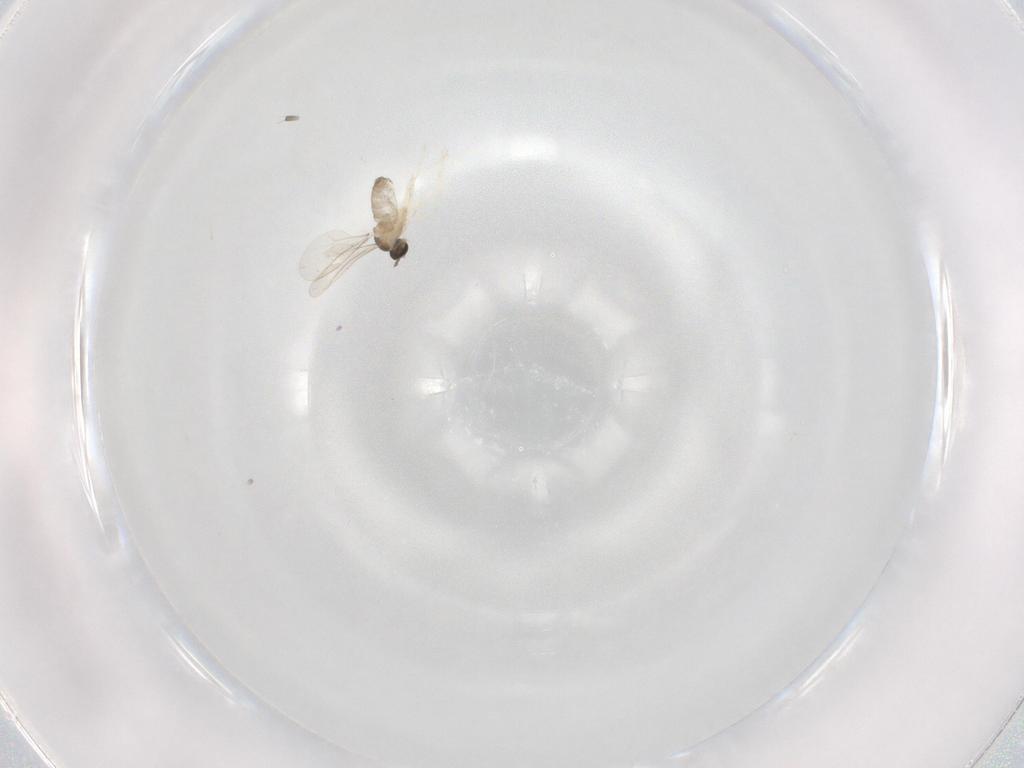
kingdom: Animalia
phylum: Arthropoda
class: Insecta
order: Diptera
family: Cecidomyiidae
